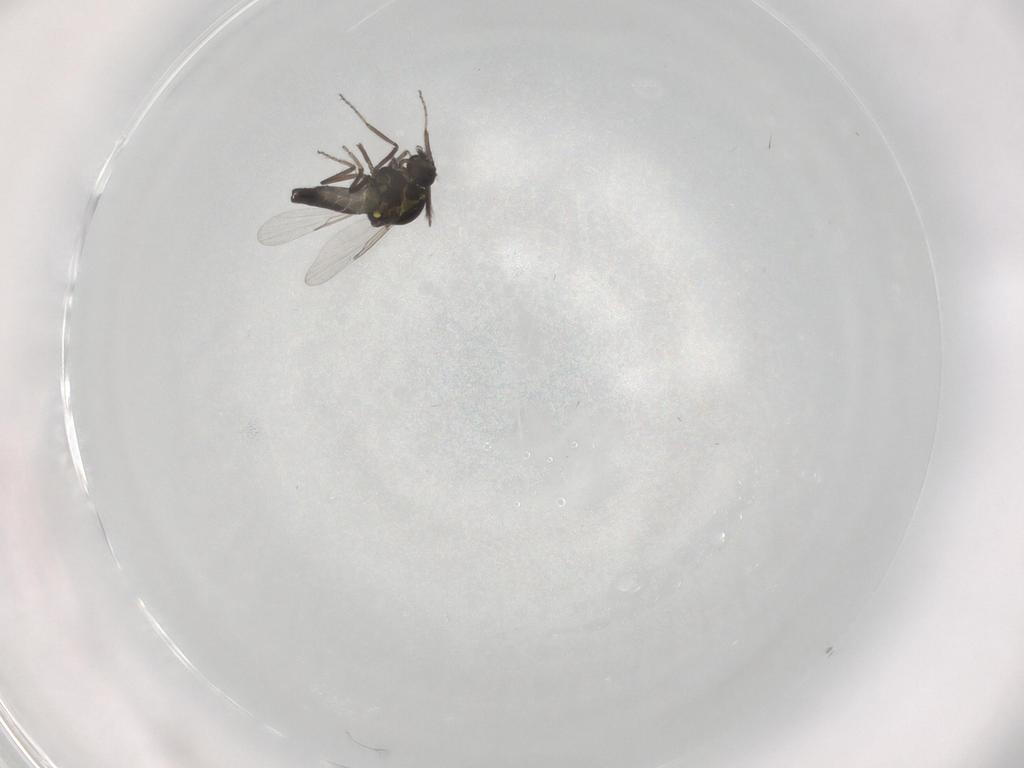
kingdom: Animalia
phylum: Arthropoda
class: Insecta
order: Diptera
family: Ceratopogonidae
